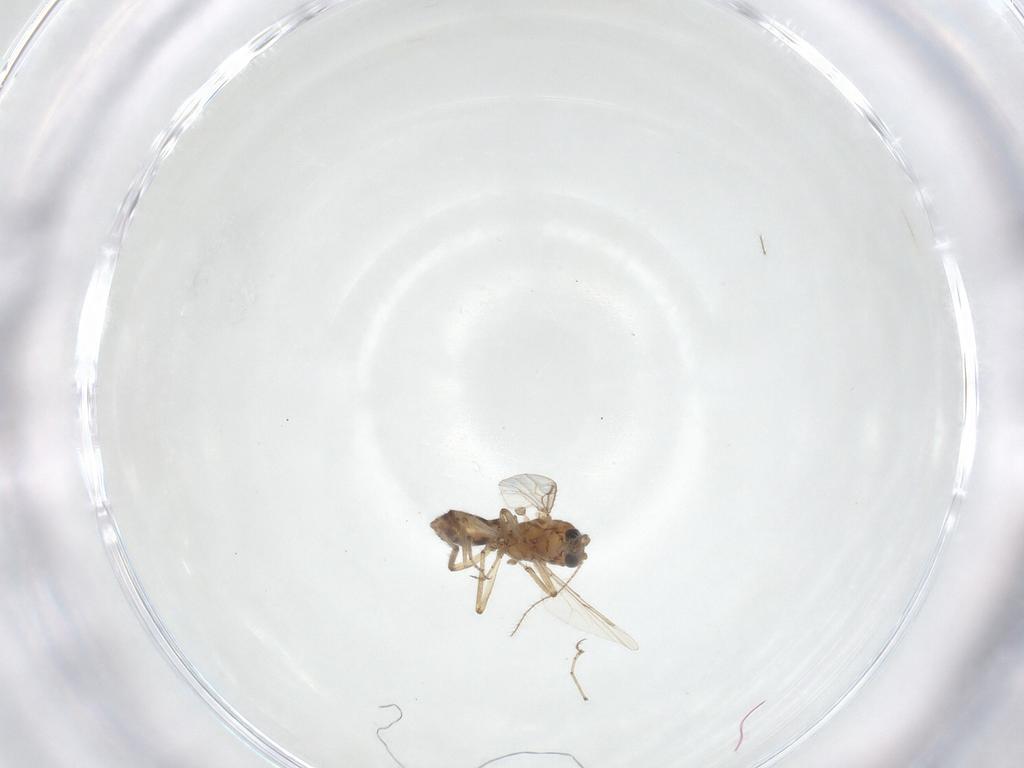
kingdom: Animalia
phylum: Arthropoda
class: Insecta
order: Diptera
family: Ceratopogonidae
